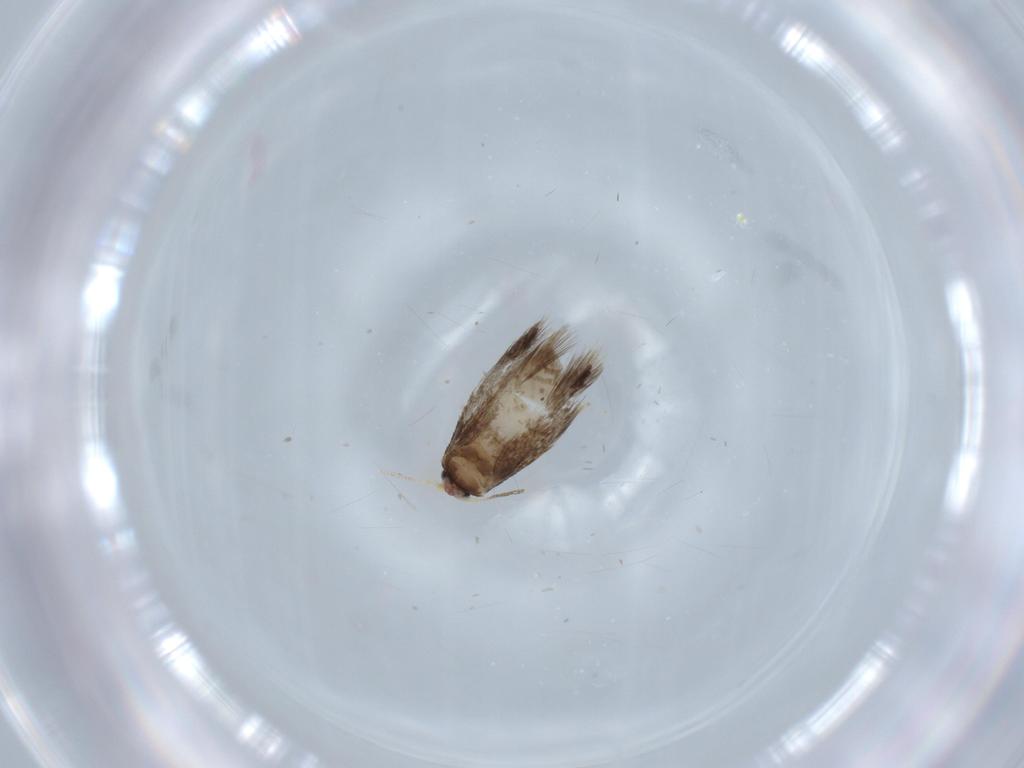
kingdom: Animalia
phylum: Arthropoda
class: Insecta
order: Lepidoptera
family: Nepticulidae
